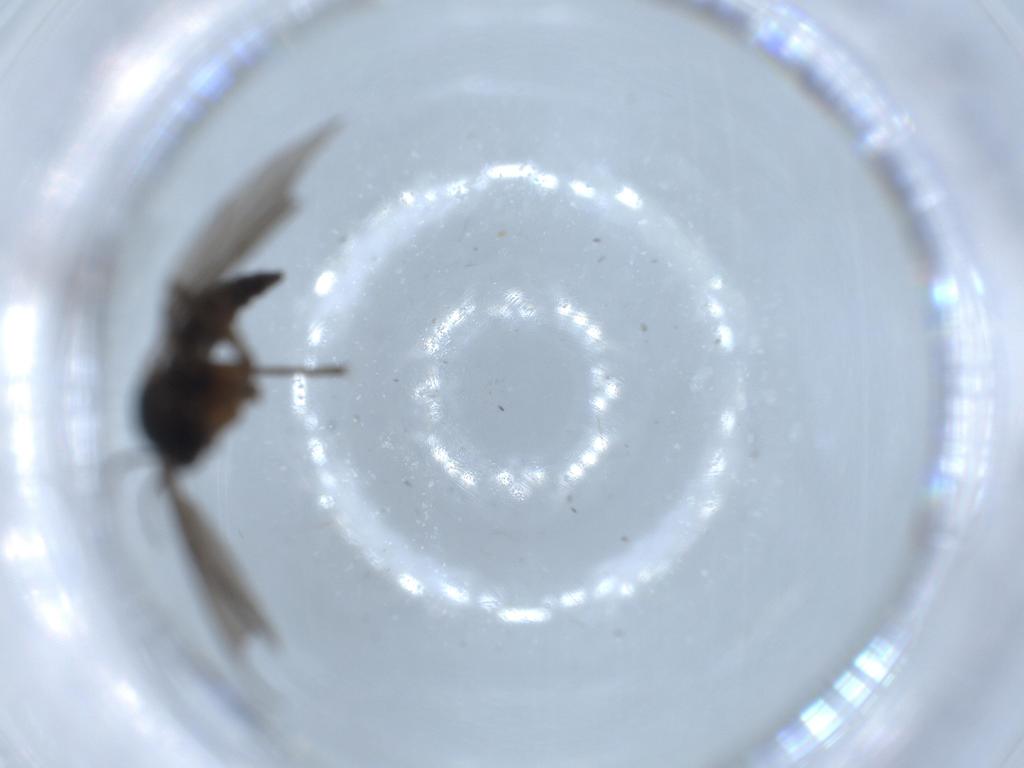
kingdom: Animalia
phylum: Arthropoda
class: Insecta
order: Diptera
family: Sciaridae
